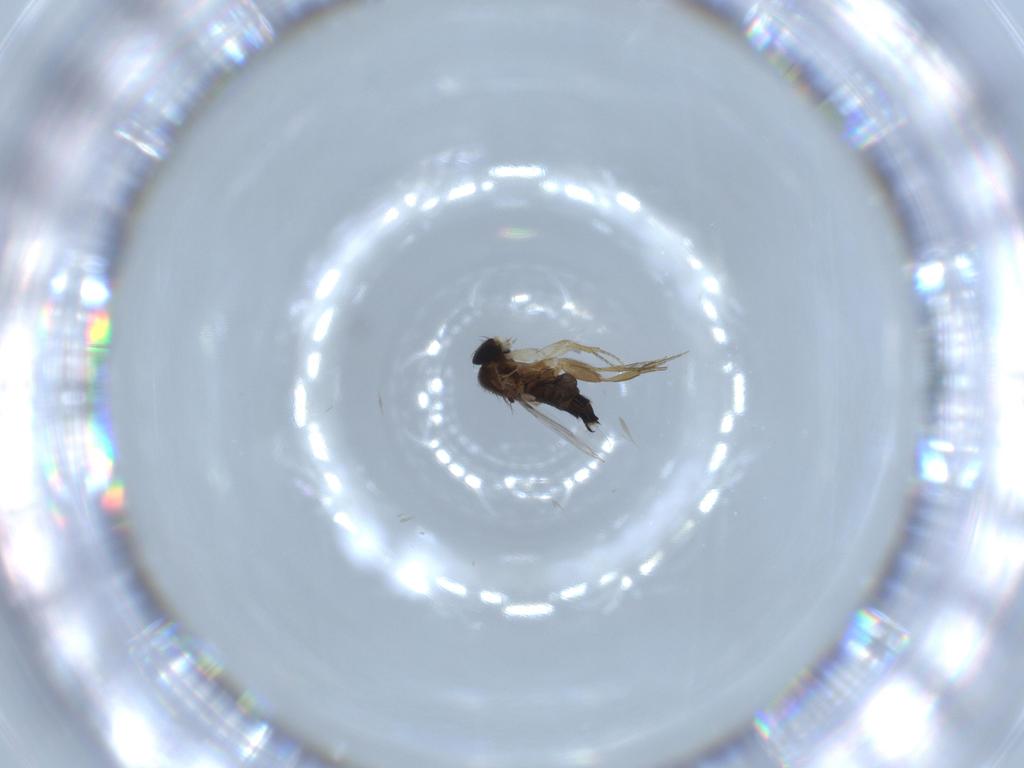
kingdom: Animalia
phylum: Arthropoda
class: Insecta
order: Diptera
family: Phoridae
